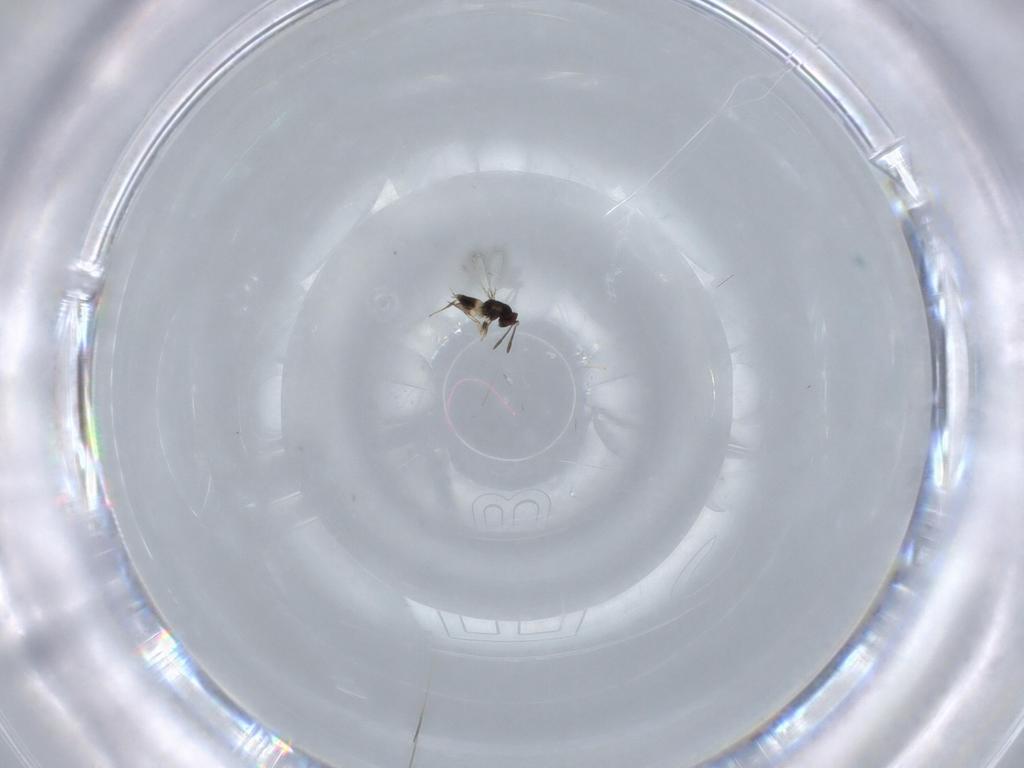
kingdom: Animalia
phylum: Arthropoda
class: Insecta
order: Hymenoptera
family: Mymaridae
